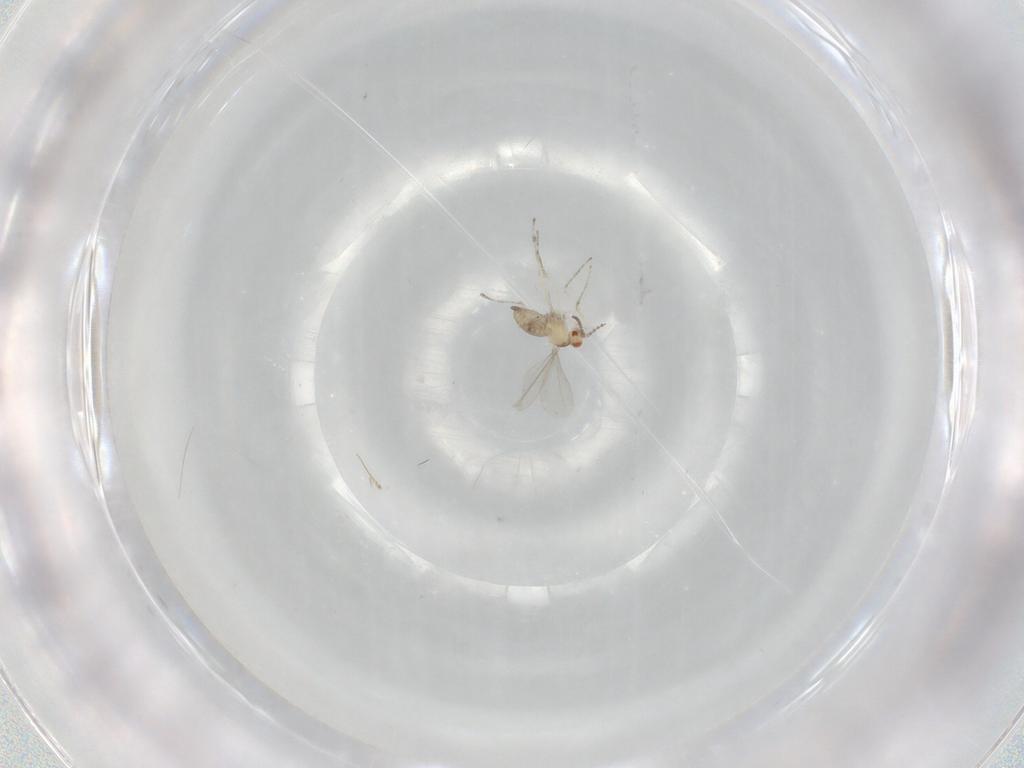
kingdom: Animalia
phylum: Arthropoda
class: Insecta
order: Diptera
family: Cecidomyiidae
